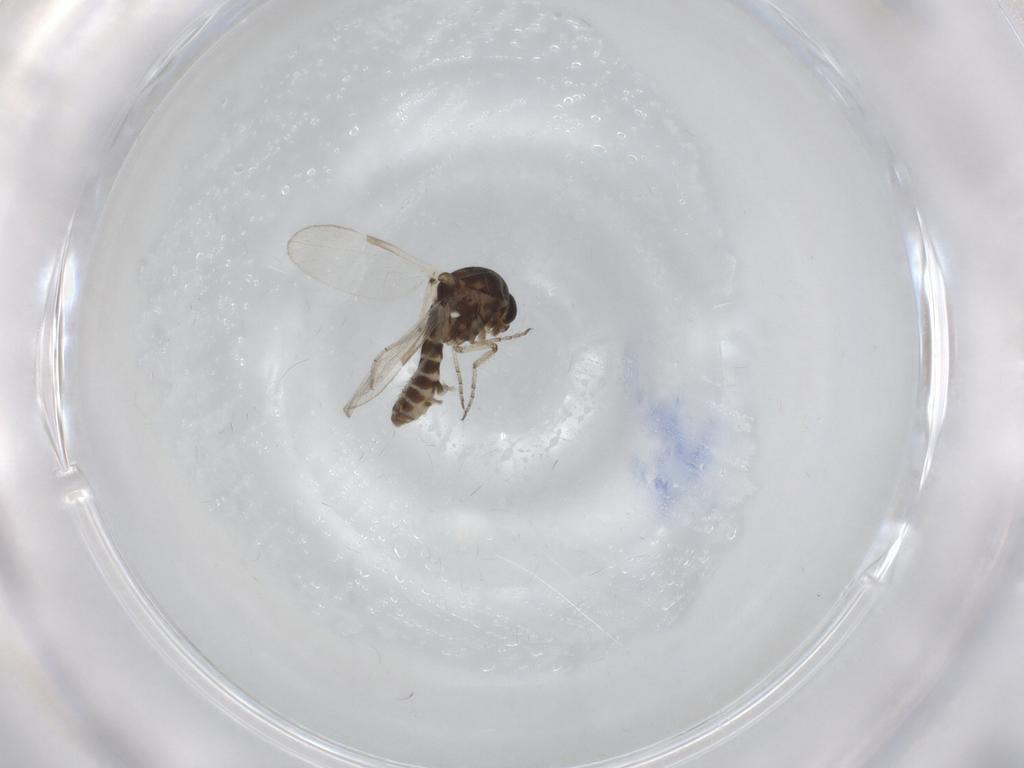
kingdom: Animalia
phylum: Arthropoda
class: Insecta
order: Diptera
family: Ceratopogonidae
